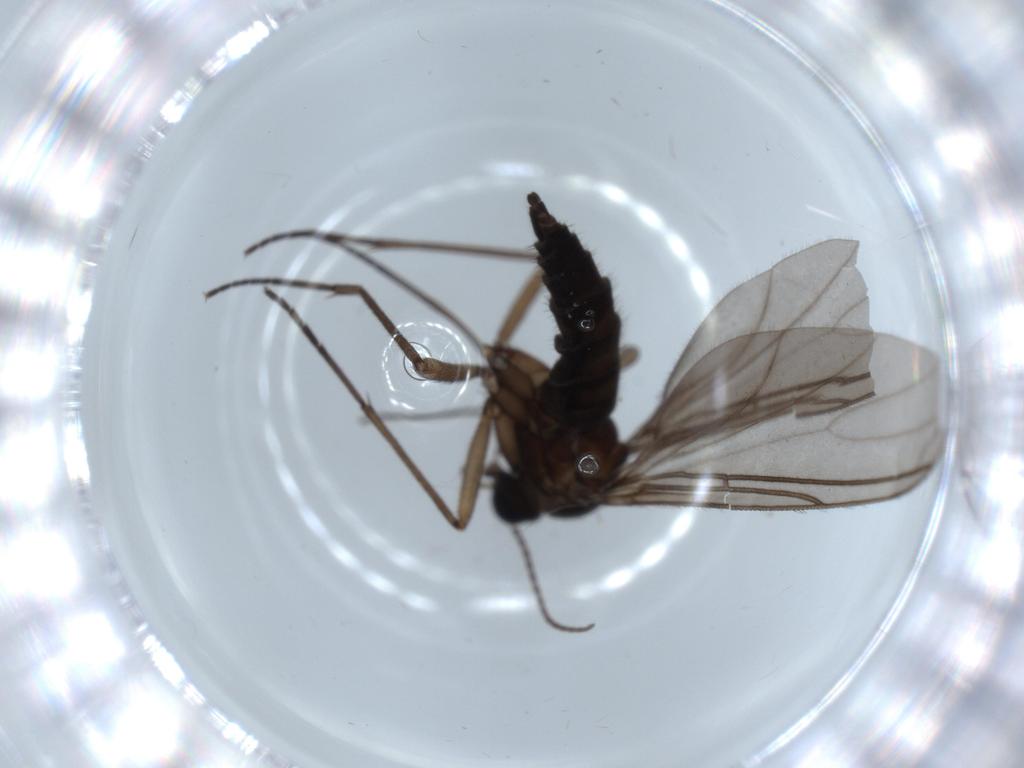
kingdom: Animalia
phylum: Arthropoda
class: Insecta
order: Diptera
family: Sciaridae
